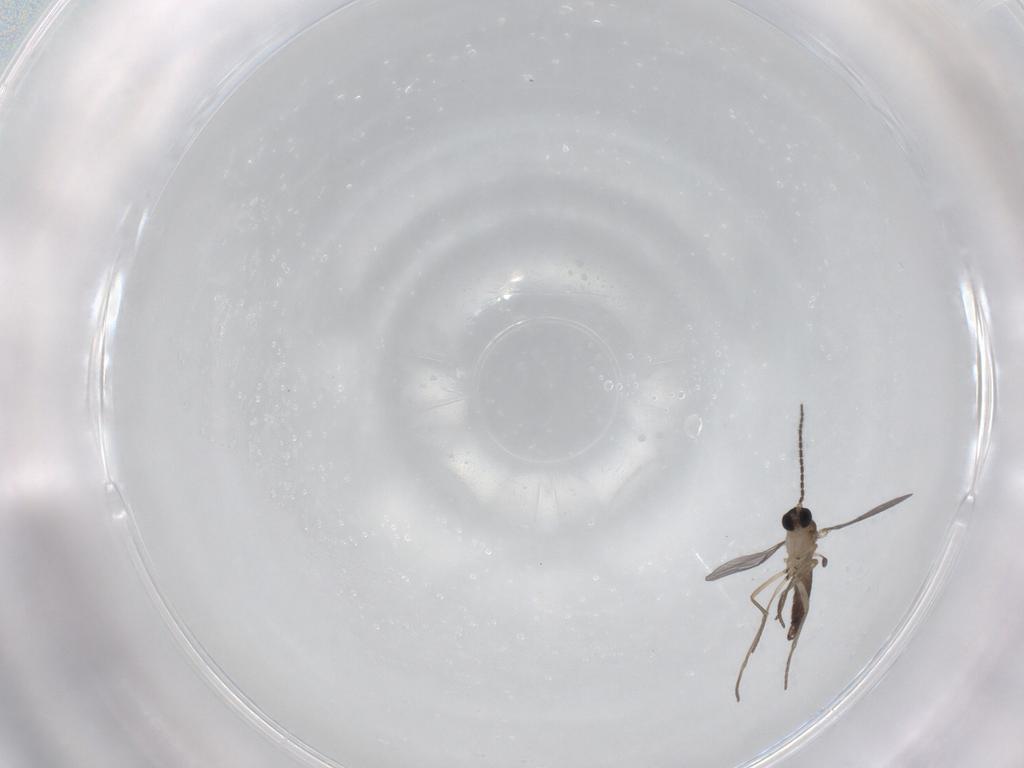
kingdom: Animalia
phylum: Arthropoda
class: Insecta
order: Diptera
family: Sciaridae
